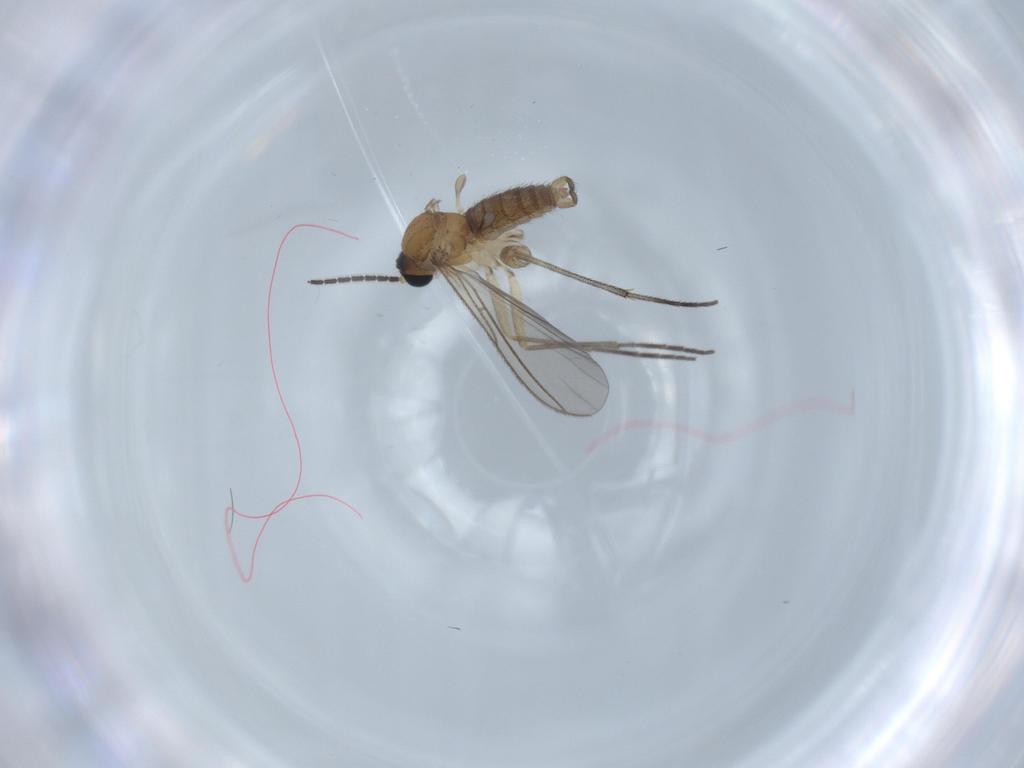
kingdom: Animalia
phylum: Arthropoda
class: Insecta
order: Diptera
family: Sciaridae
